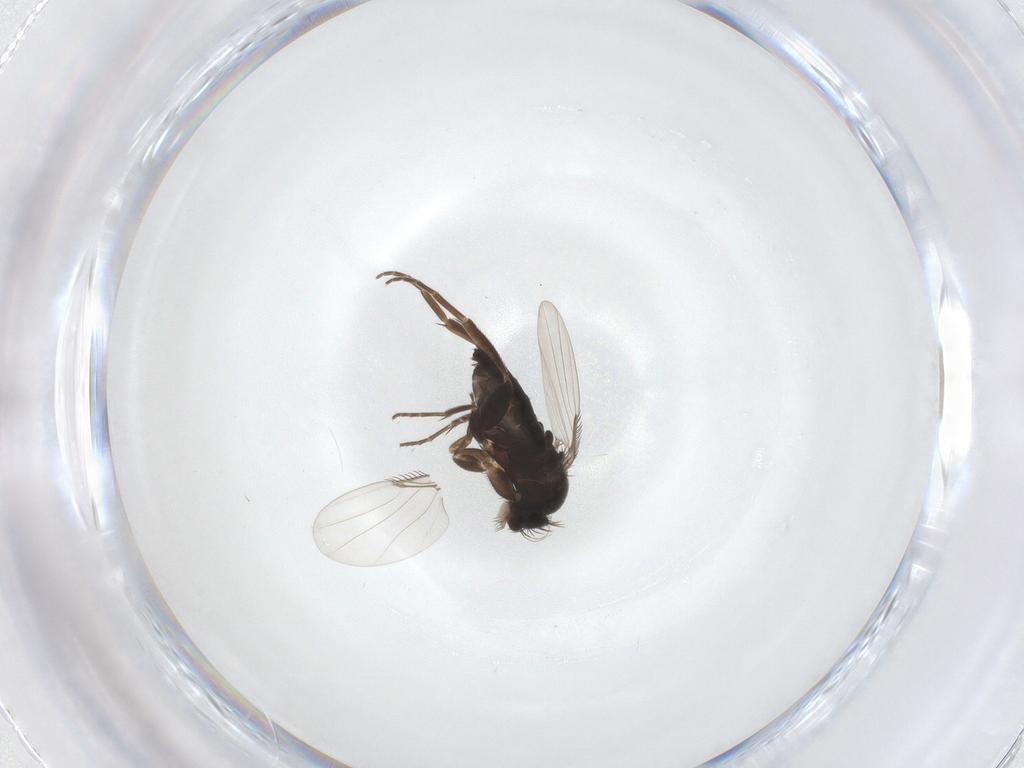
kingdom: Animalia
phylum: Arthropoda
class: Insecta
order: Diptera
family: Phoridae
